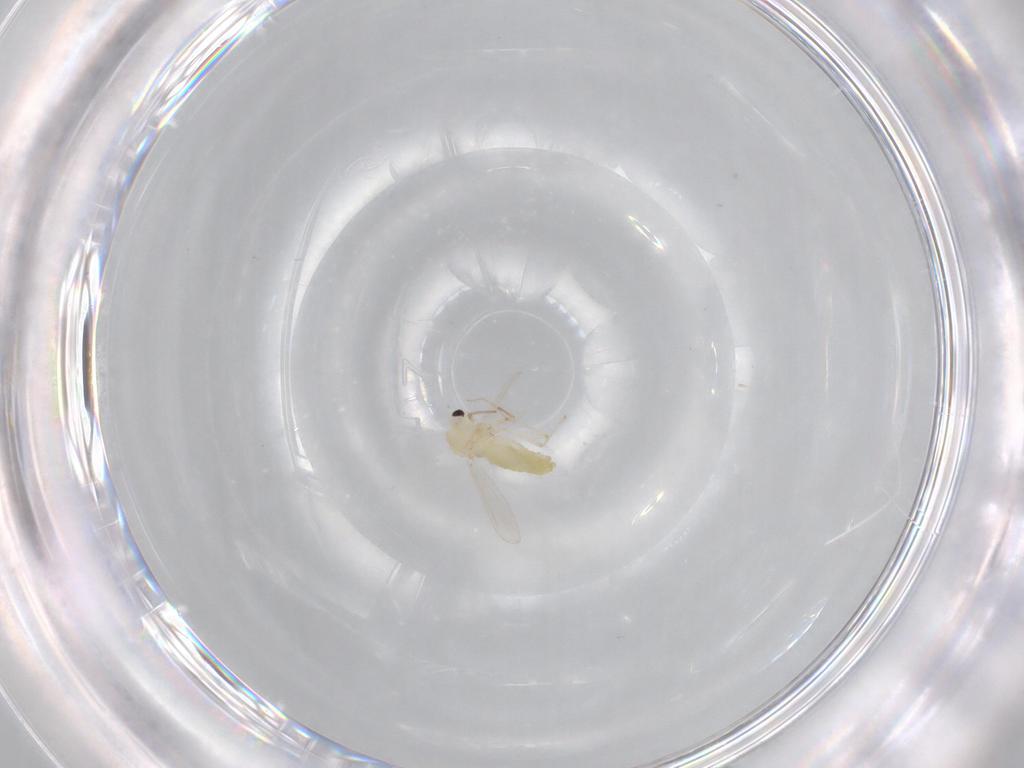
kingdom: Animalia
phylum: Arthropoda
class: Insecta
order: Diptera
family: Chironomidae
